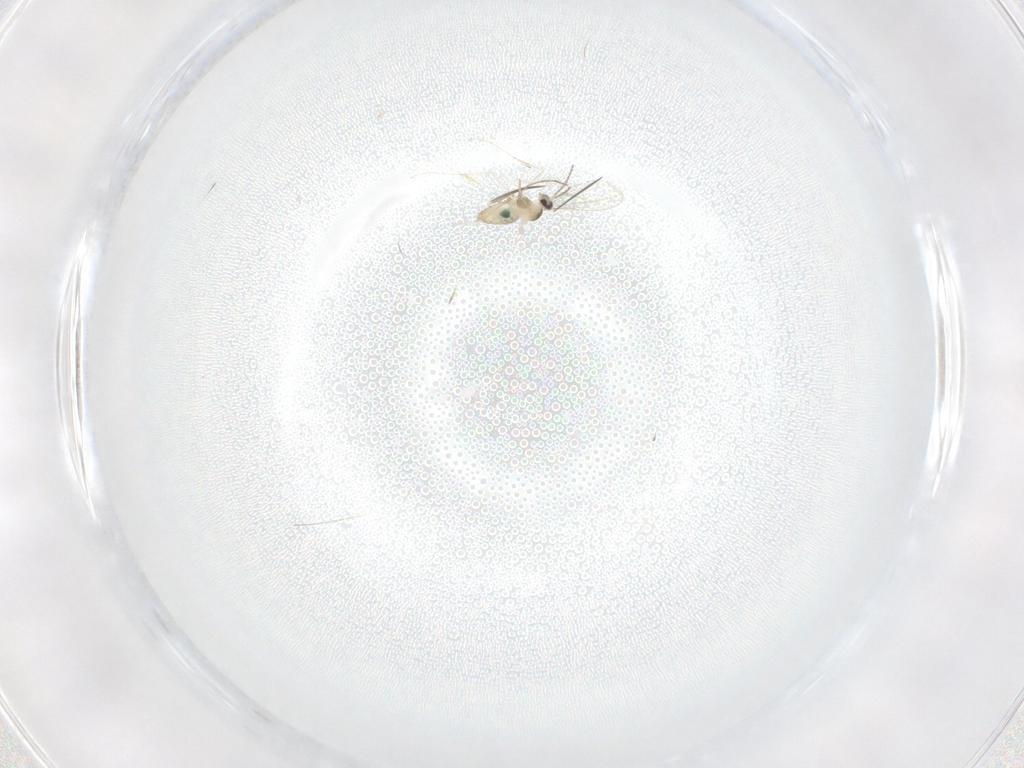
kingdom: Animalia
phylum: Arthropoda
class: Insecta
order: Diptera
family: Cecidomyiidae
